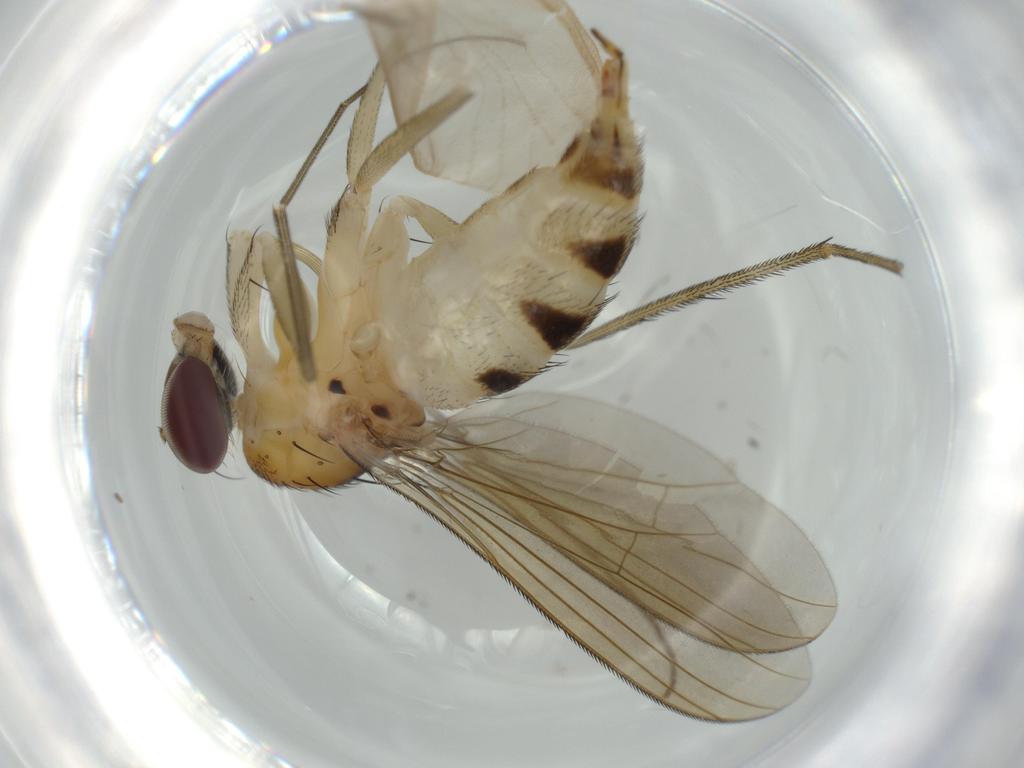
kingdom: Animalia
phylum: Arthropoda
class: Insecta
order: Diptera
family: Dolichopodidae
